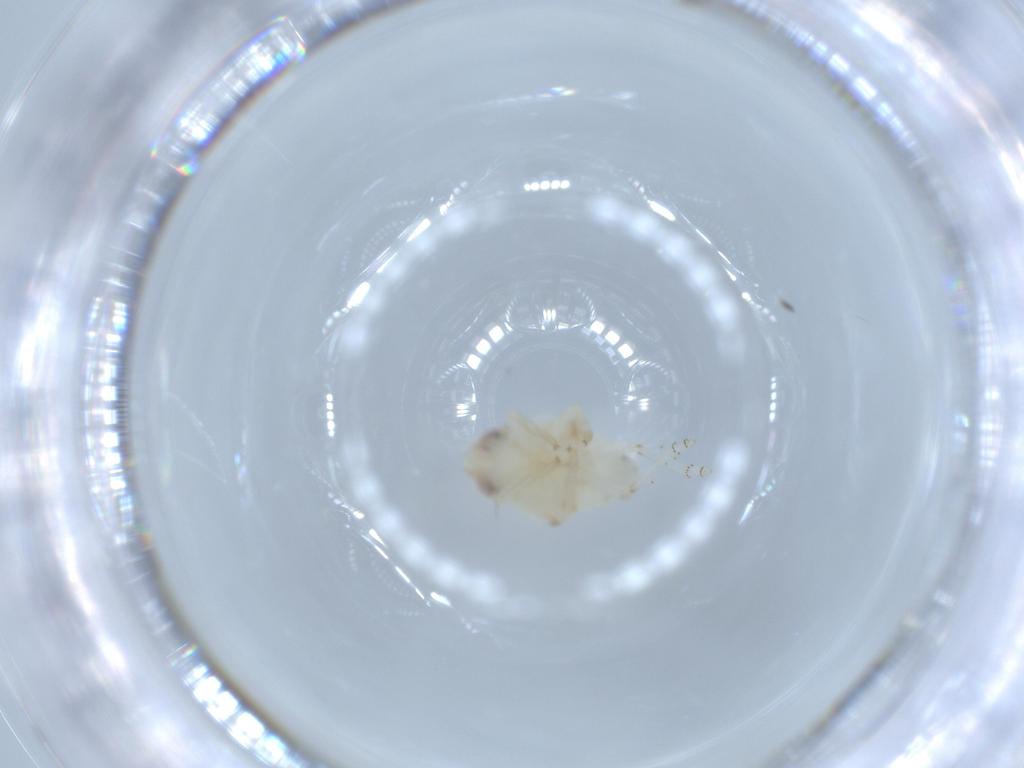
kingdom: Animalia
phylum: Arthropoda
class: Insecta
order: Hemiptera
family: Nogodinidae
